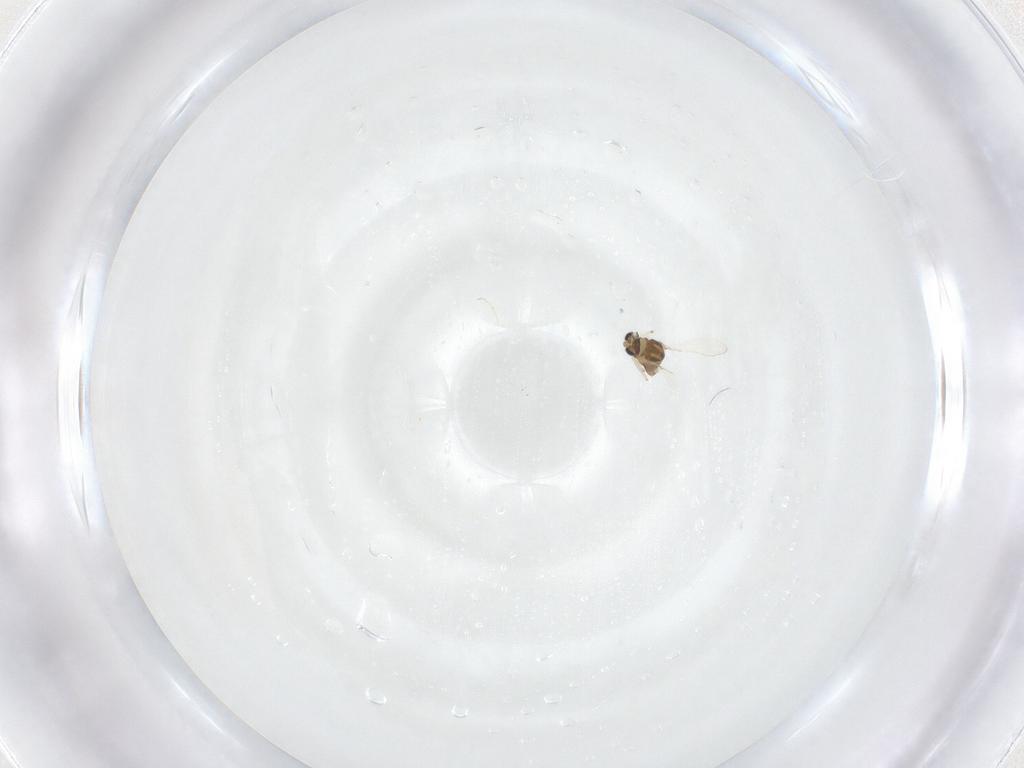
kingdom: Animalia
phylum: Arthropoda
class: Insecta
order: Diptera
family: Chironomidae
